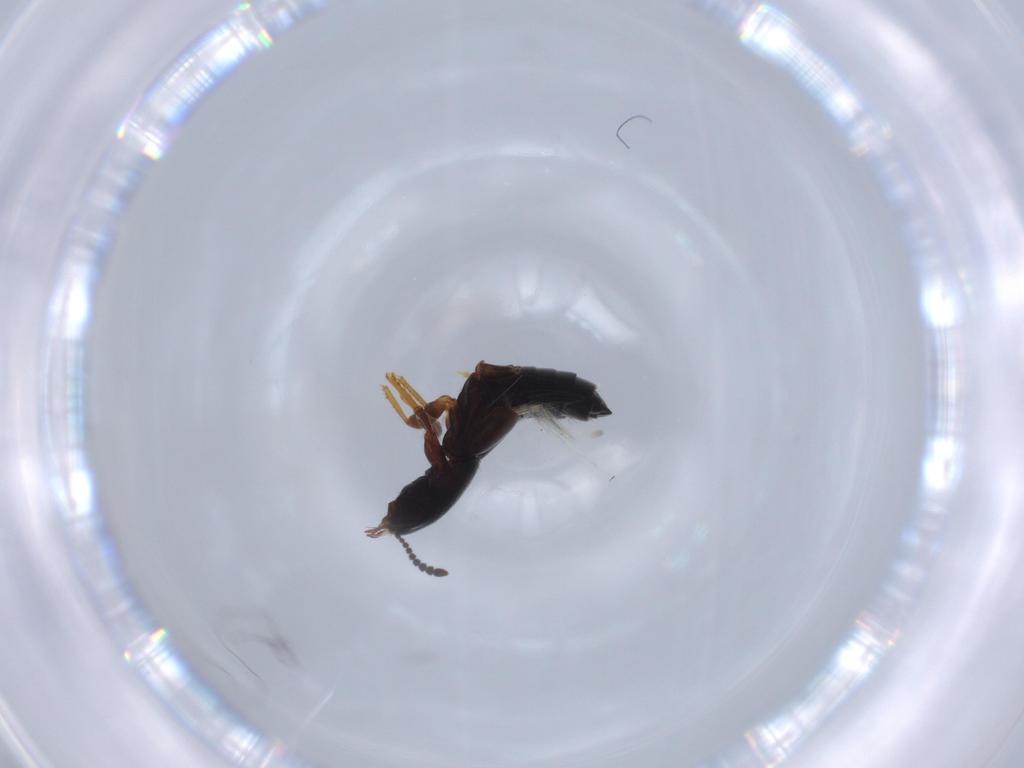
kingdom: Animalia
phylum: Arthropoda
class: Insecta
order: Coleoptera
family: Staphylinidae
